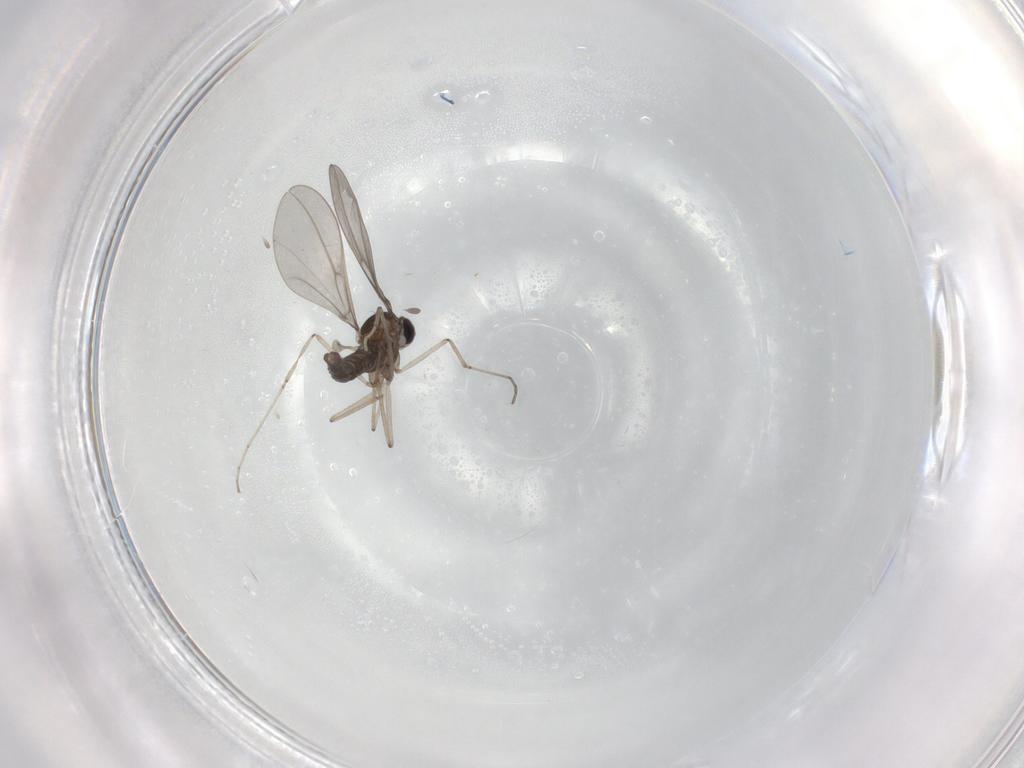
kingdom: Animalia
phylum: Arthropoda
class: Insecta
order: Diptera
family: Cecidomyiidae
